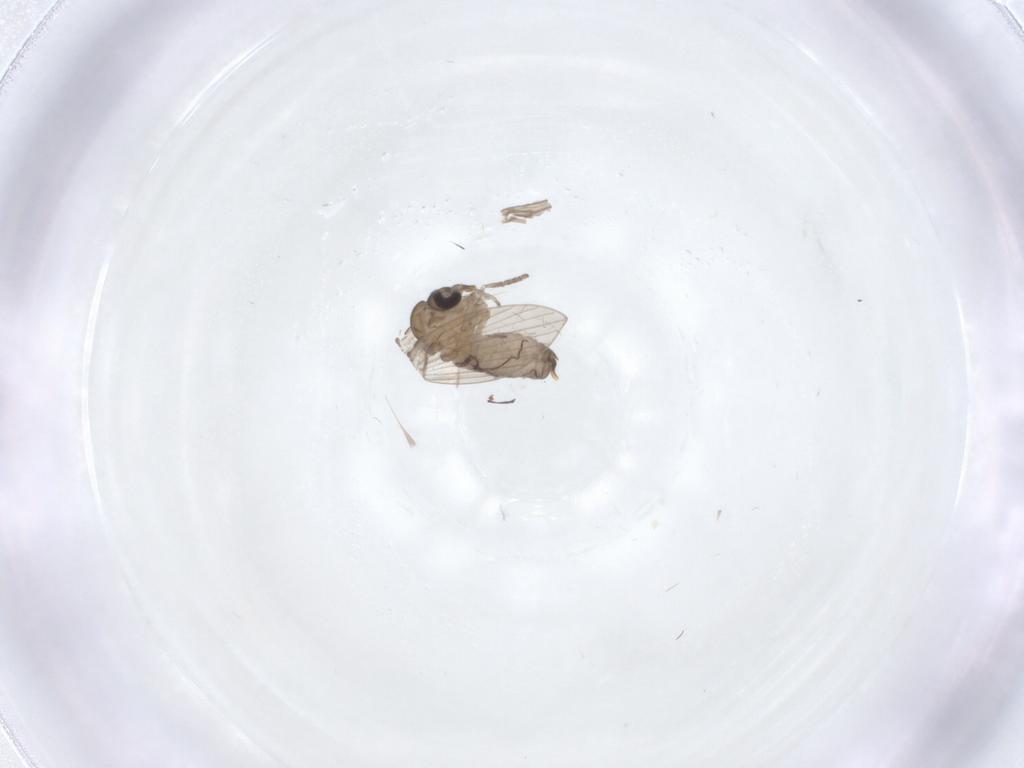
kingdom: Animalia
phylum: Arthropoda
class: Insecta
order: Diptera
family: Psychodidae
